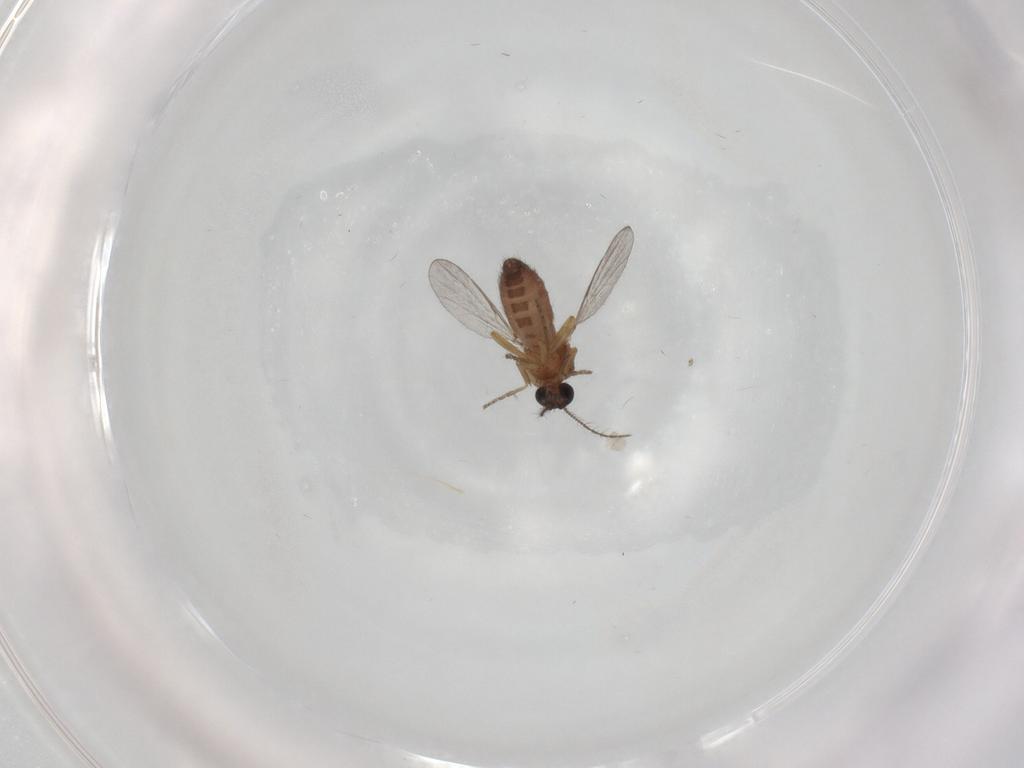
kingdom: Animalia
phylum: Arthropoda
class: Insecta
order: Diptera
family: Ceratopogonidae
